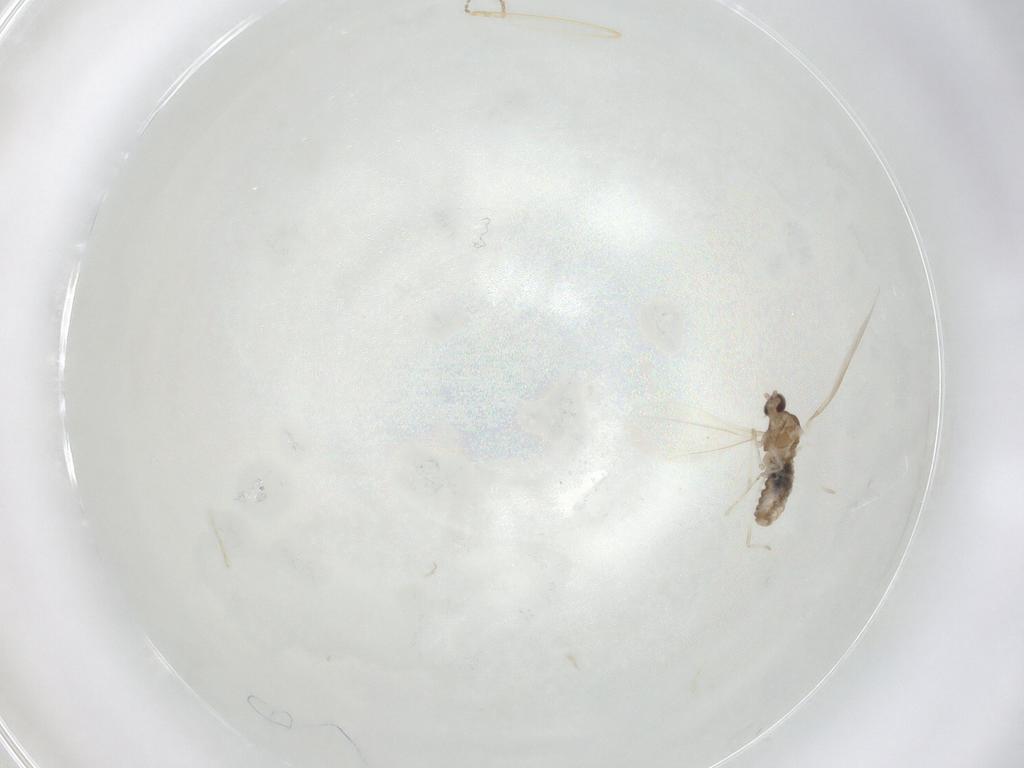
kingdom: Animalia
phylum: Arthropoda
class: Insecta
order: Diptera
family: Cecidomyiidae
